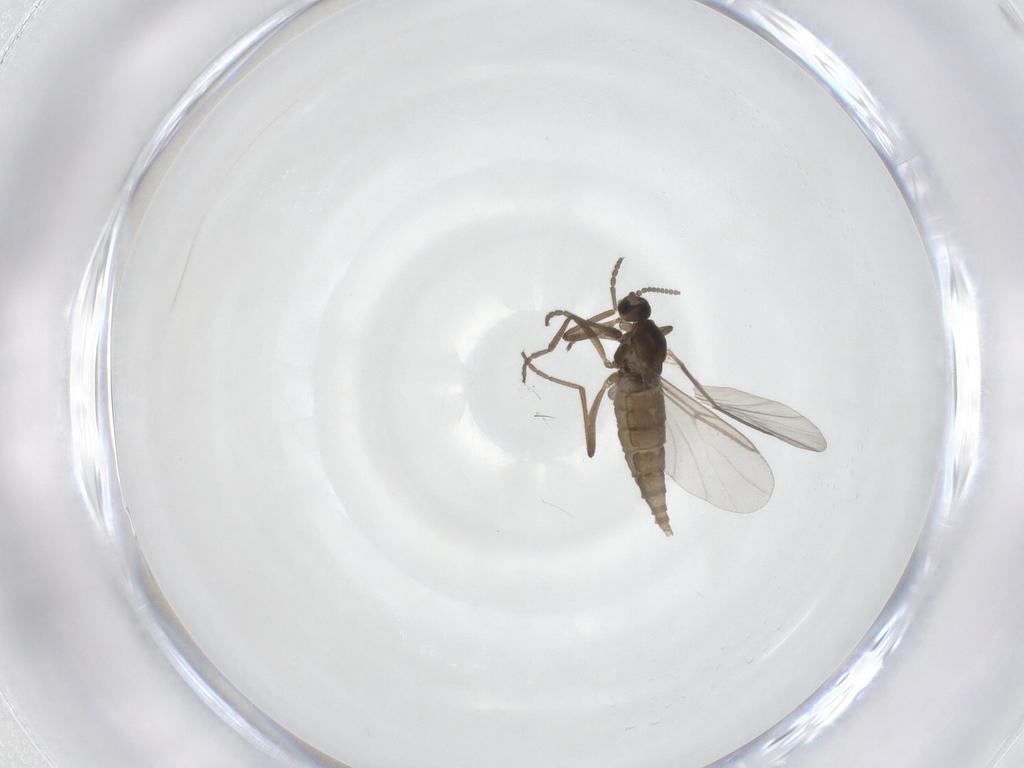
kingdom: Animalia
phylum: Arthropoda
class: Insecta
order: Diptera
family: Cecidomyiidae
